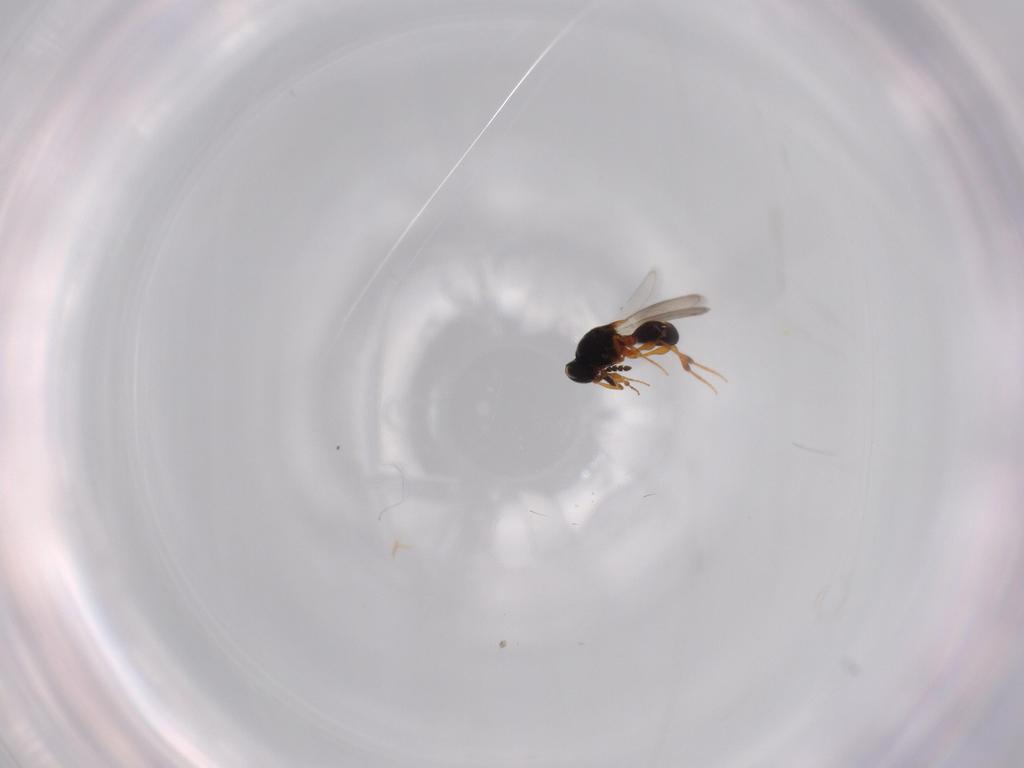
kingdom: Animalia
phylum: Arthropoda
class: Insecta
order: Hymenoptera
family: Platygastridae
